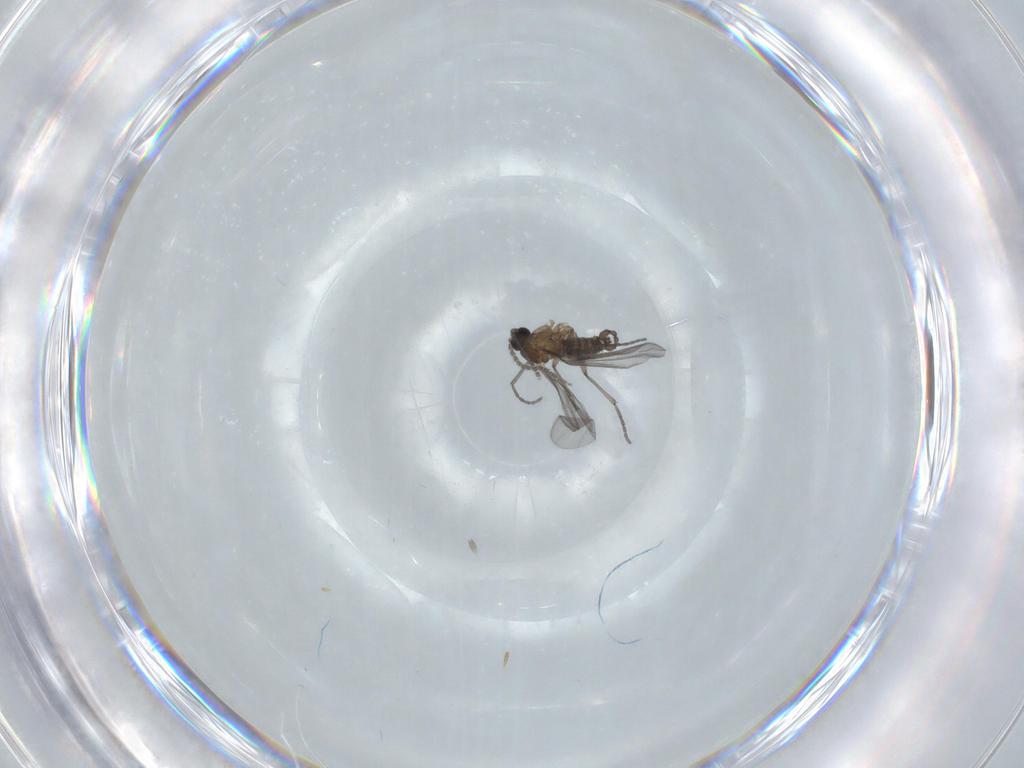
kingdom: Animalia
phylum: Arthropoda
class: Insecta
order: Diptera
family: Sciaridae
